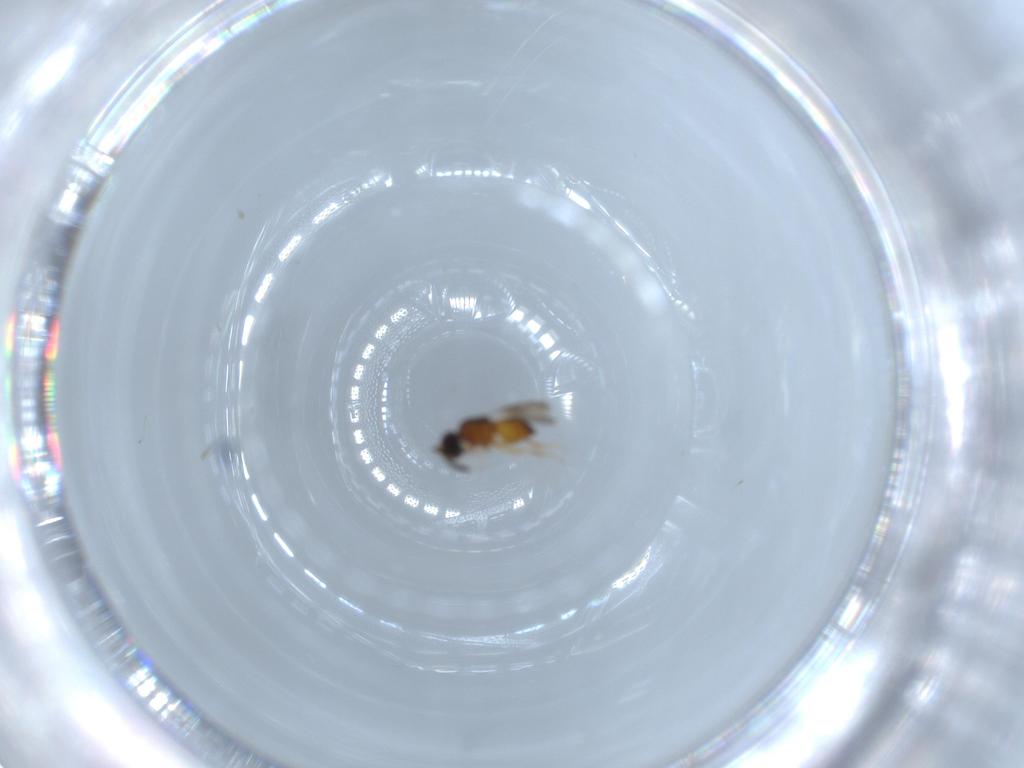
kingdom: Animalia
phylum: Arthropoda
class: Insecta
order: Hymenoptera
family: Ceraphronidae
